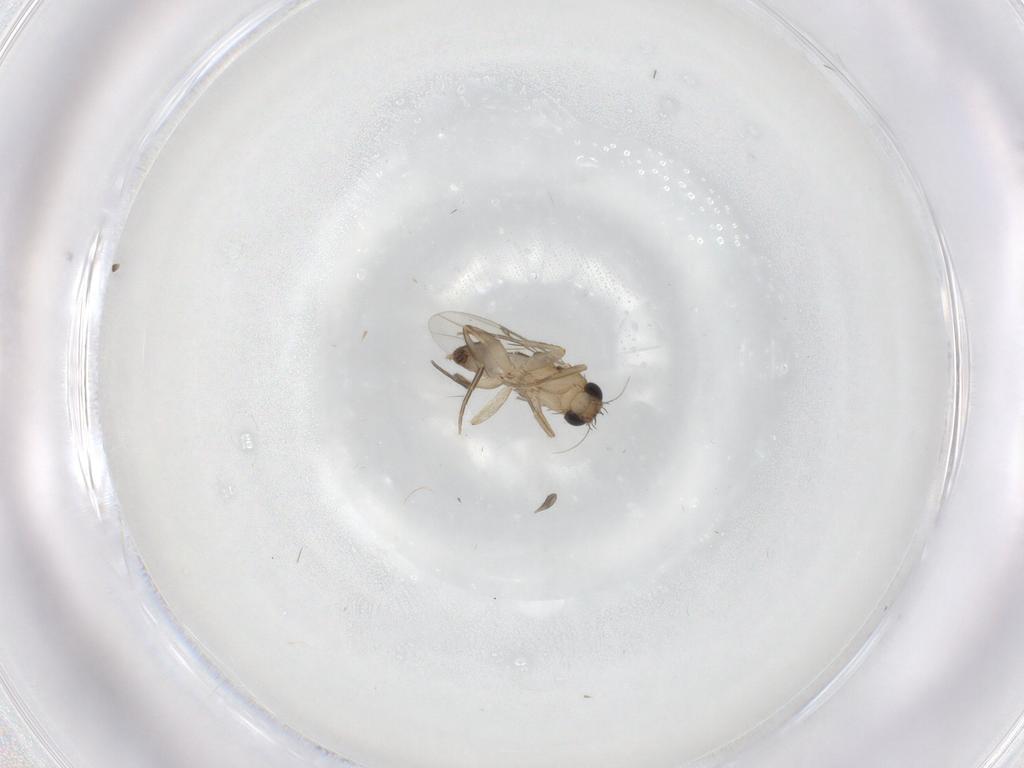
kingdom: Animalia
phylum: Arthropoda
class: Insecta
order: Diptera
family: Phoridae
